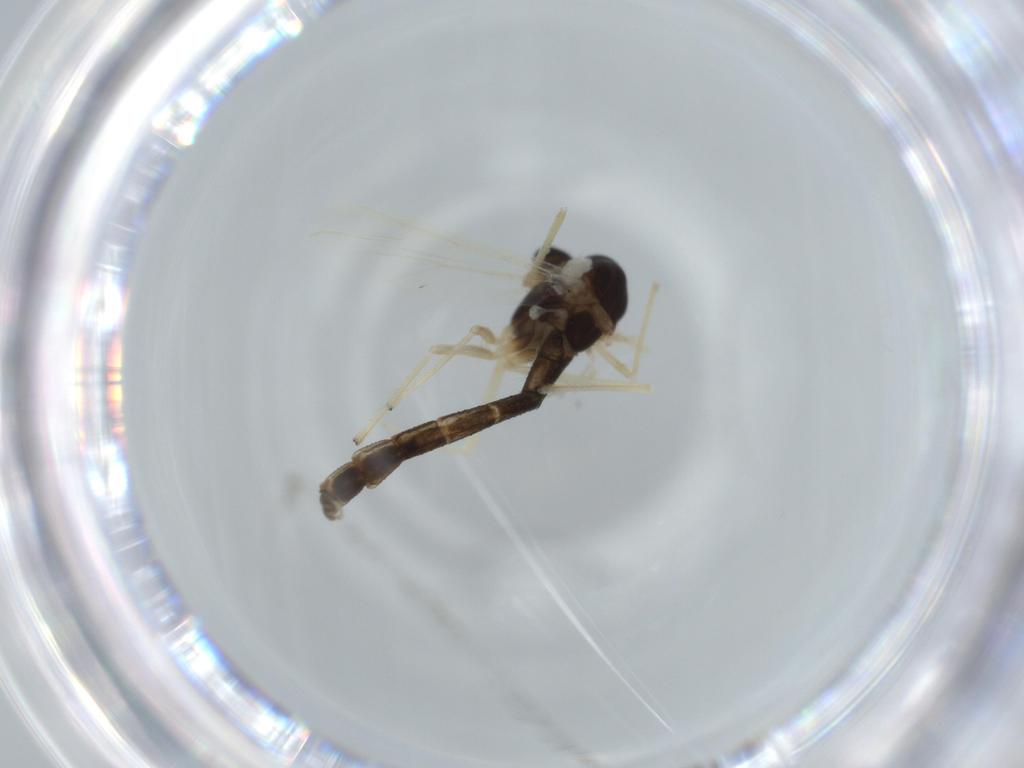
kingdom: Animalia
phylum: Arthropoda
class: Insecta
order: Diptera
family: Chironomidae
